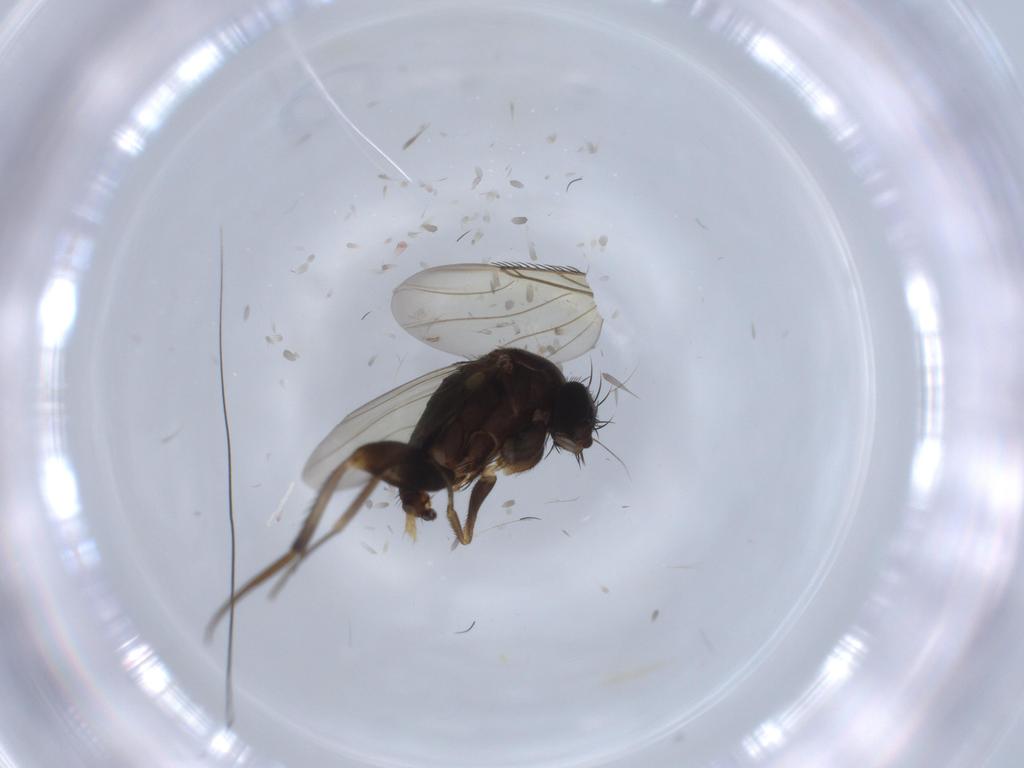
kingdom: Animalia
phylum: Arthropoda
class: Insecta
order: Diptera
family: Phoridae
